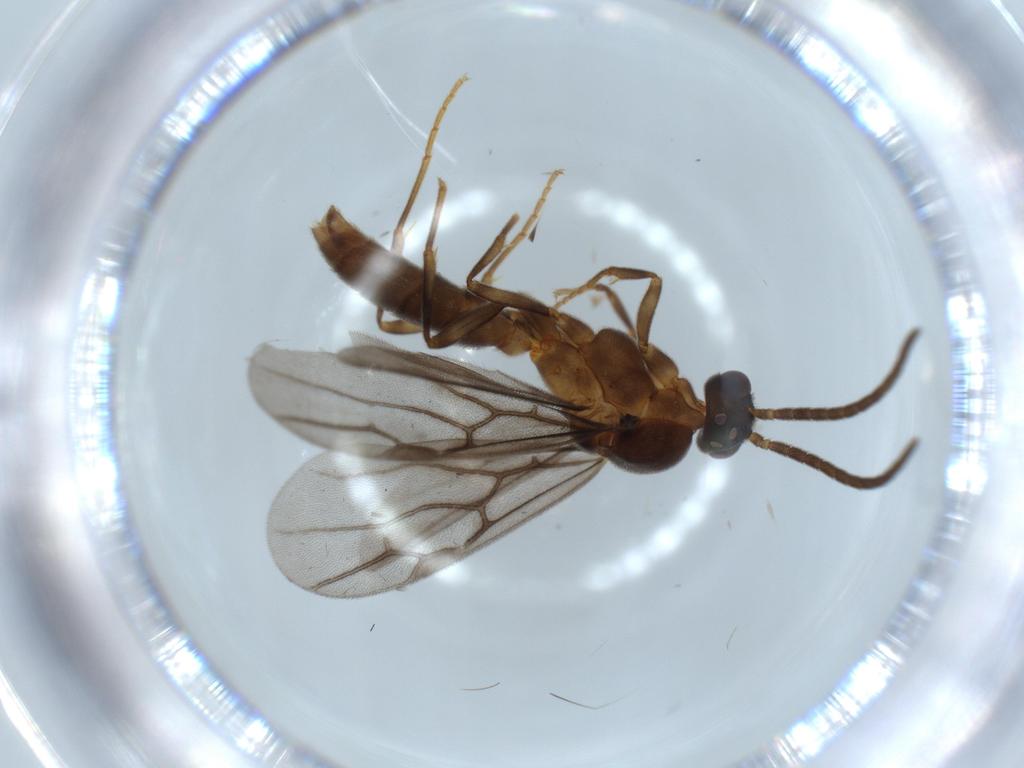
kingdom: Animalia
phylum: Arthropoda
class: Insecta
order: Hymenoptera
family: Formicidae
